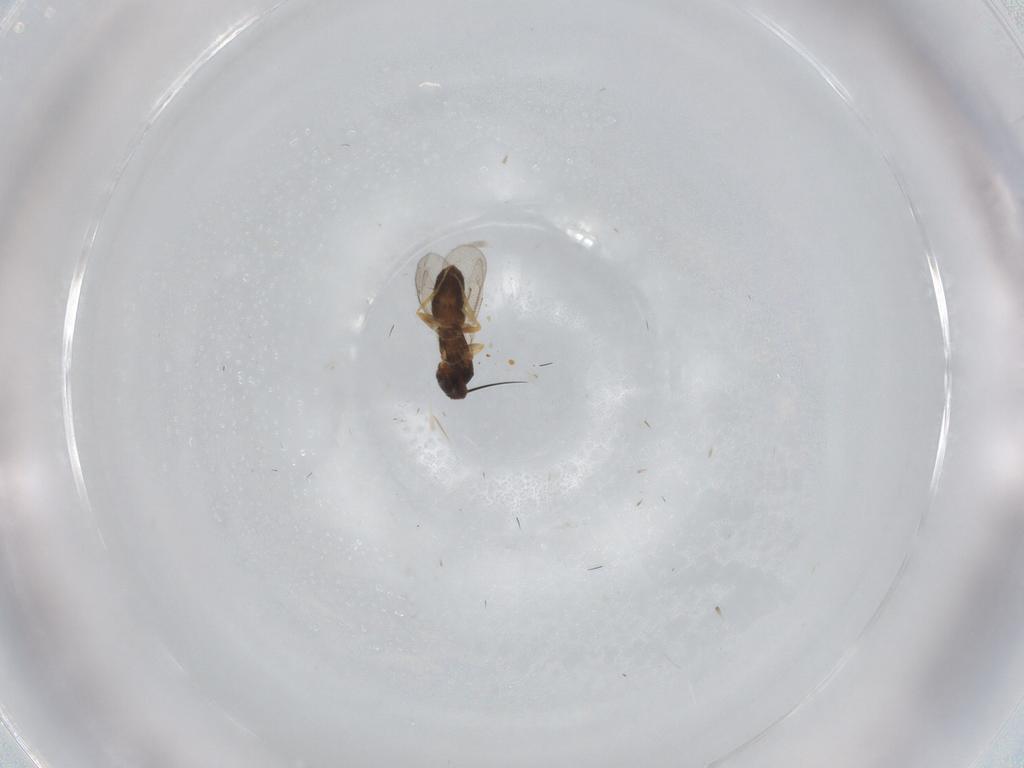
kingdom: Animalia
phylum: Arthropoda
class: Insecta
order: Hymenoptera
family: Eulophidae
